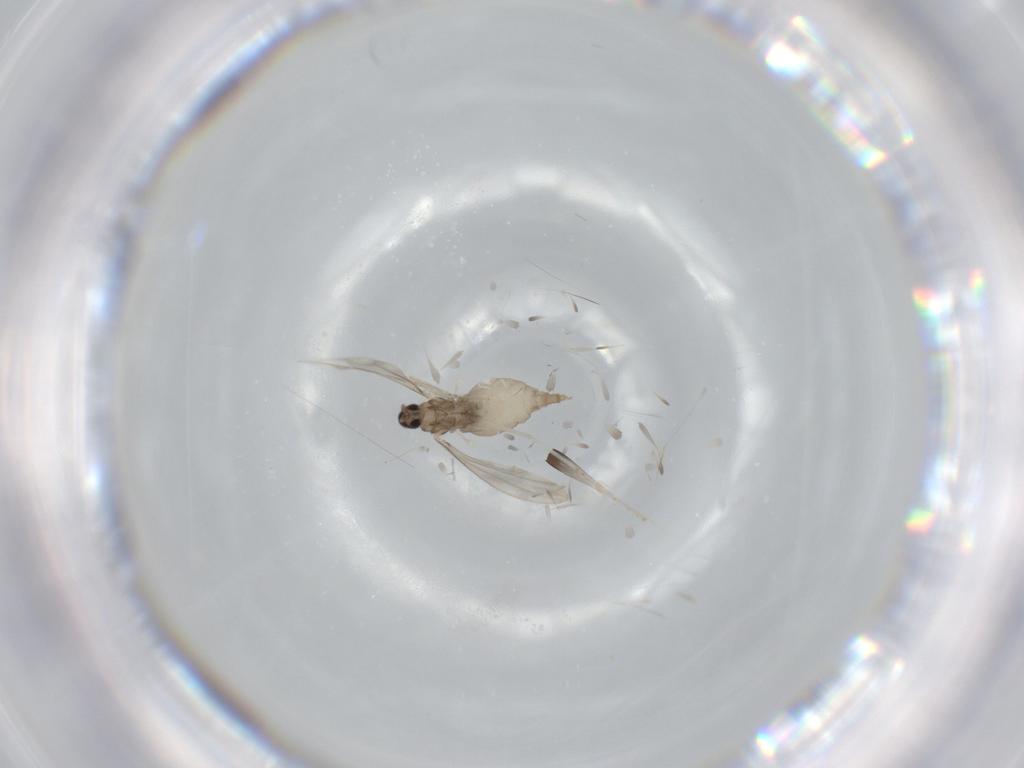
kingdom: Animalia
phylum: Arthropoda
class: Insecta
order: Diptera
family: Cecidomyiidae
